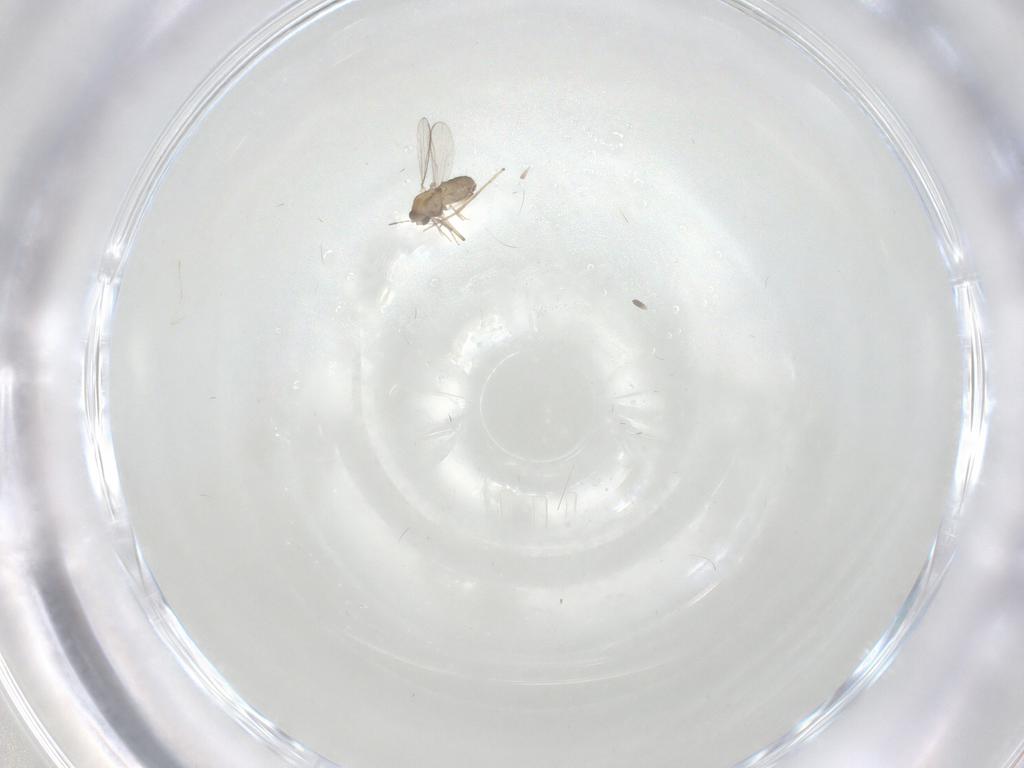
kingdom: Animalia
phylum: Arthropoda
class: Insecta
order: Diptera
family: Chironomidae
